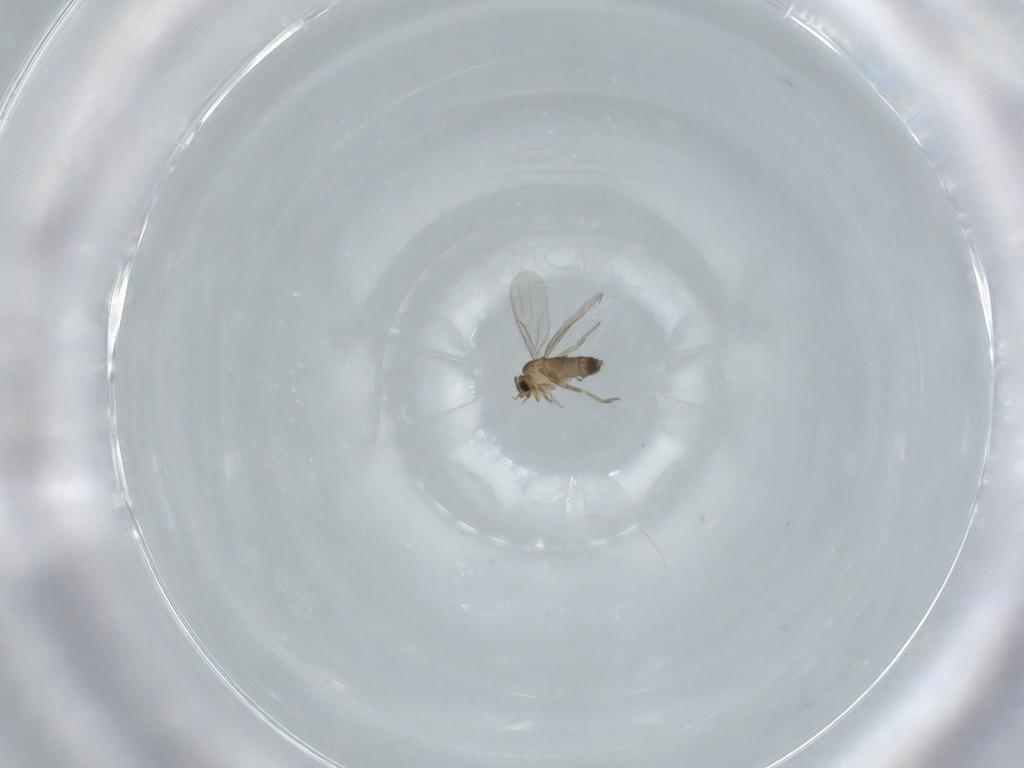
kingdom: Animalia
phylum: Arthropoda
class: Insecta
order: Diptera
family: Phoridae
